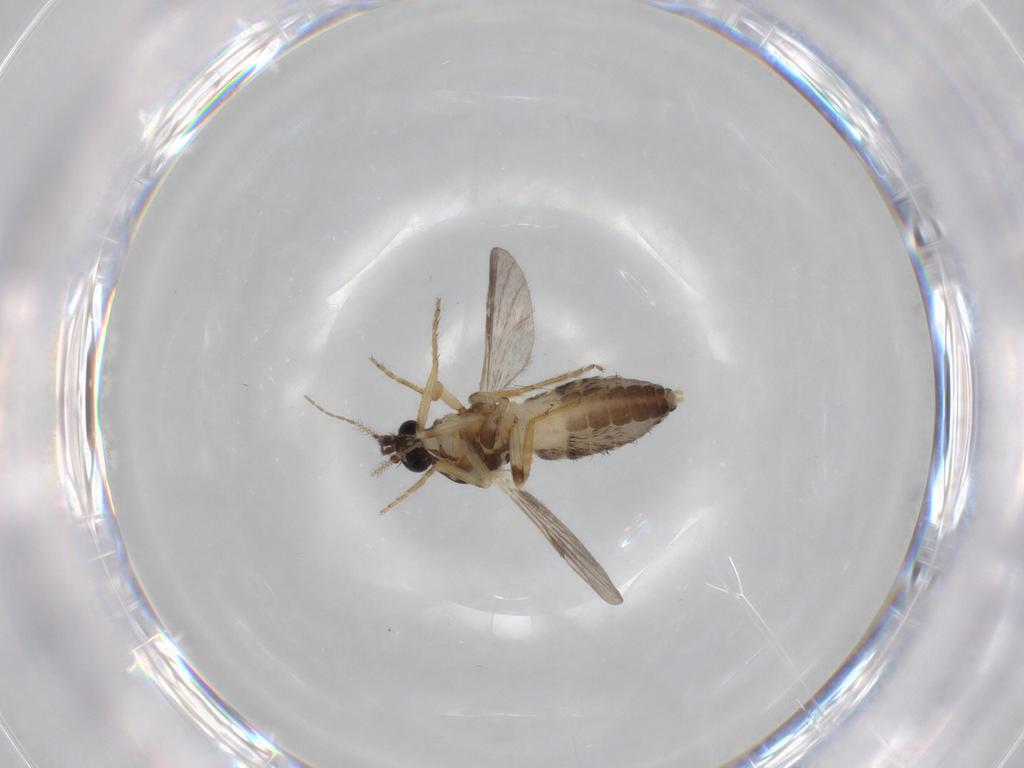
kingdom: Animalia
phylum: Arthropoda
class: Insecta
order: Diptera
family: Ceratopogonidae
